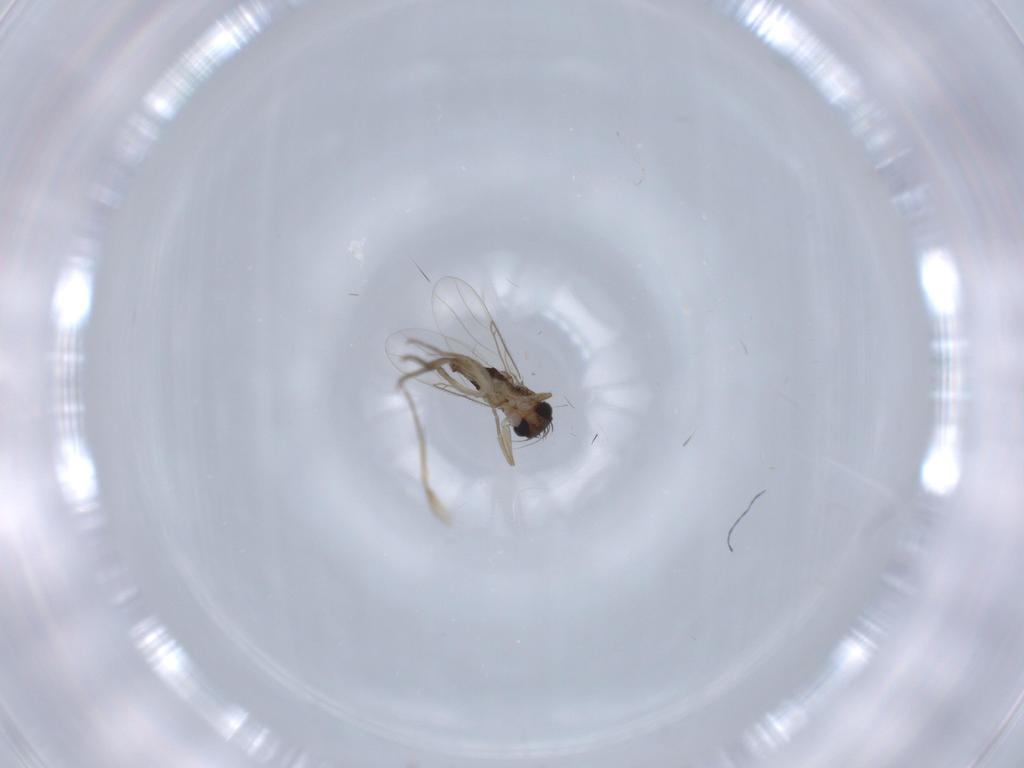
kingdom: Animalia
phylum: Arthropoda
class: Insecta
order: Diptera
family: Phoridae
